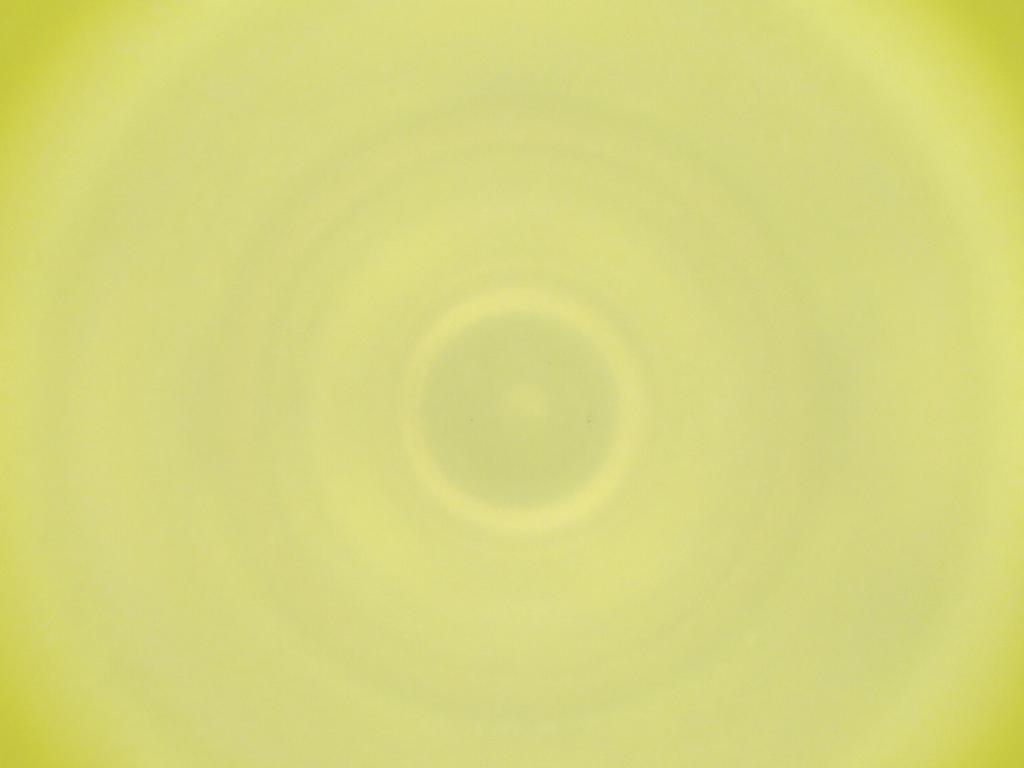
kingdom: Animalia
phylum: Arthropoda
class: Insecta
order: Diptera
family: Cecidomyiidae
